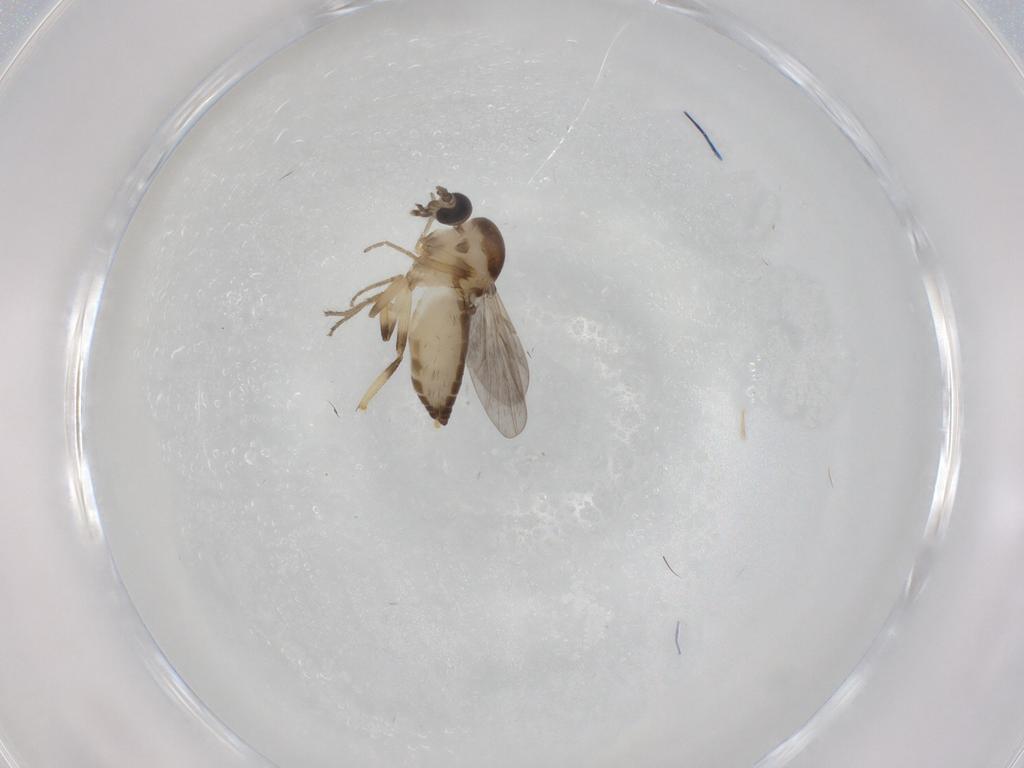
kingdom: Animalia
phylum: Arthropoda
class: Insecta
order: Diptera
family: Ceratopogonidae
